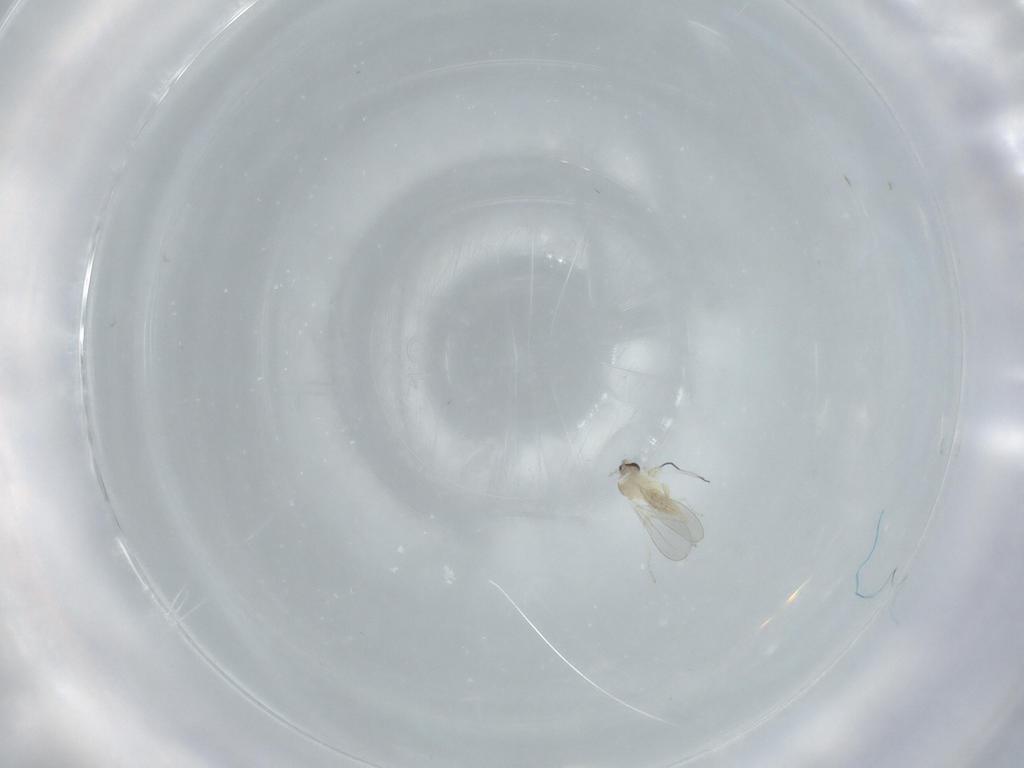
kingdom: Animalia
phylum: Arthropoda
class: Insecta
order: Diptera
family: Cecidomyiidae
